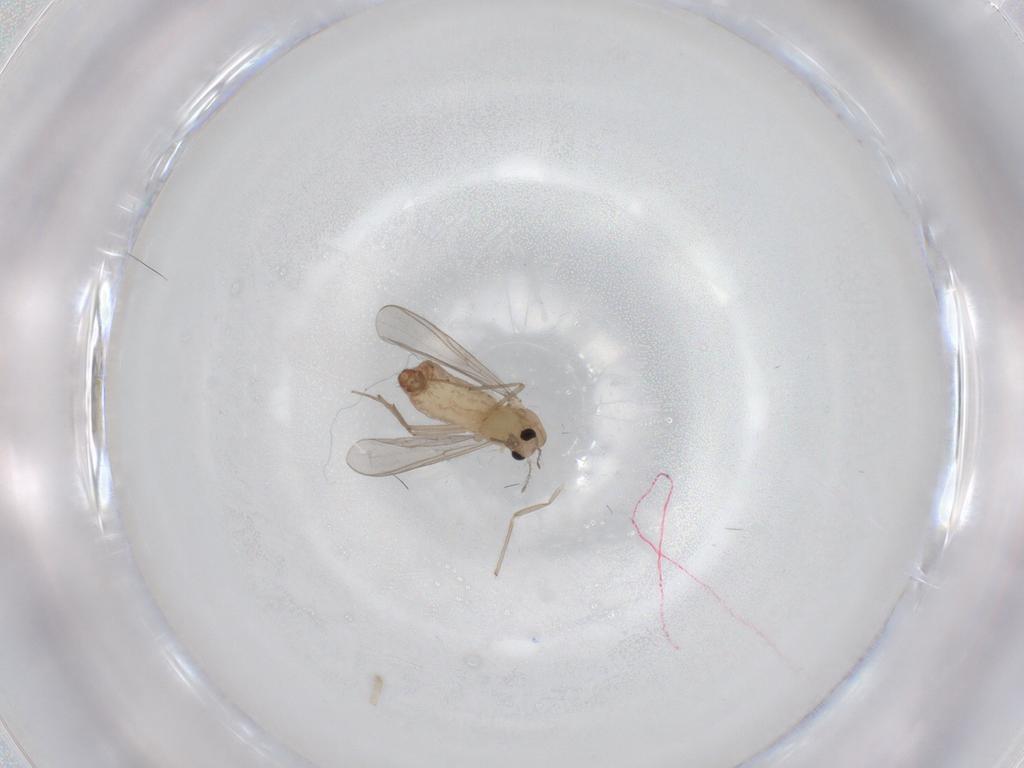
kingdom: Animalia
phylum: Arthropoda
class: Insecta
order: Diptera
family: Chironomidae
